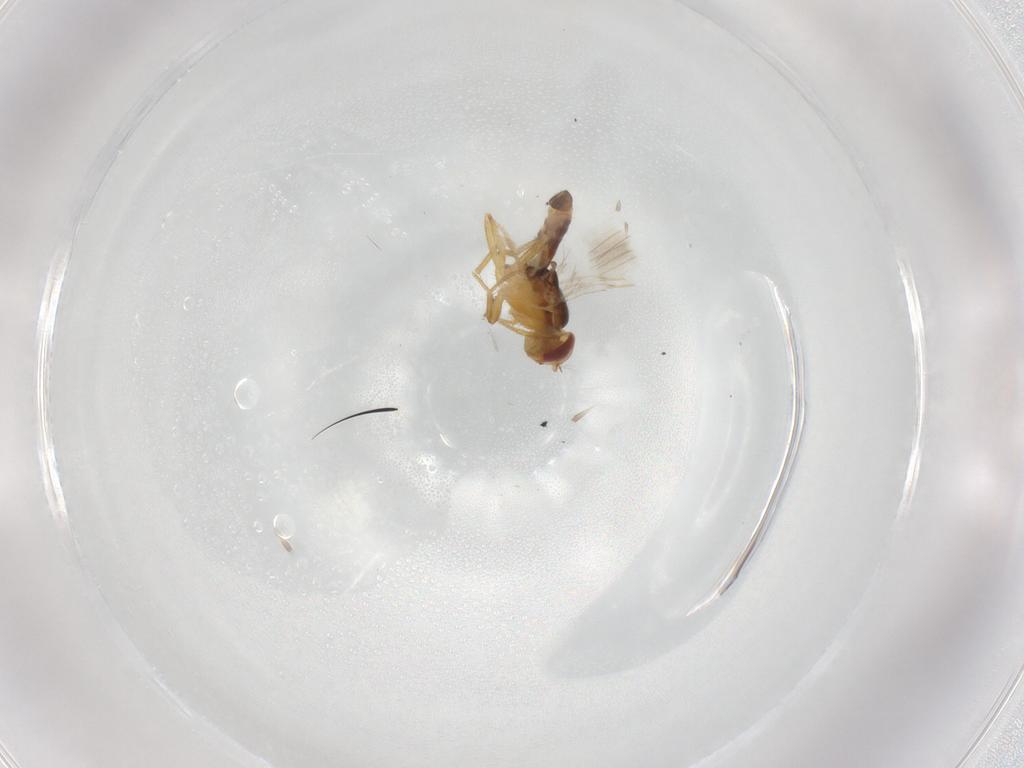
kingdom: Animalia
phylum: Arthropoda
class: Insecta
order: Diptera
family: Periscelididae
